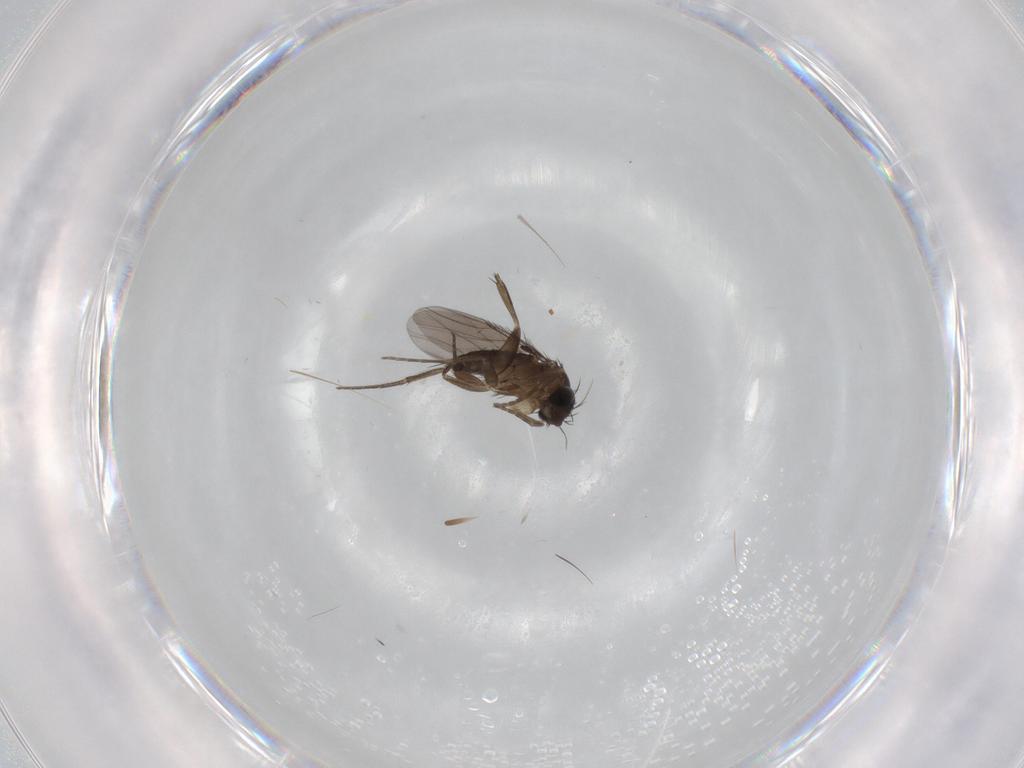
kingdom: Animalia
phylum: Arthropoda
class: Insecta
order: Diptera
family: Phoridae
